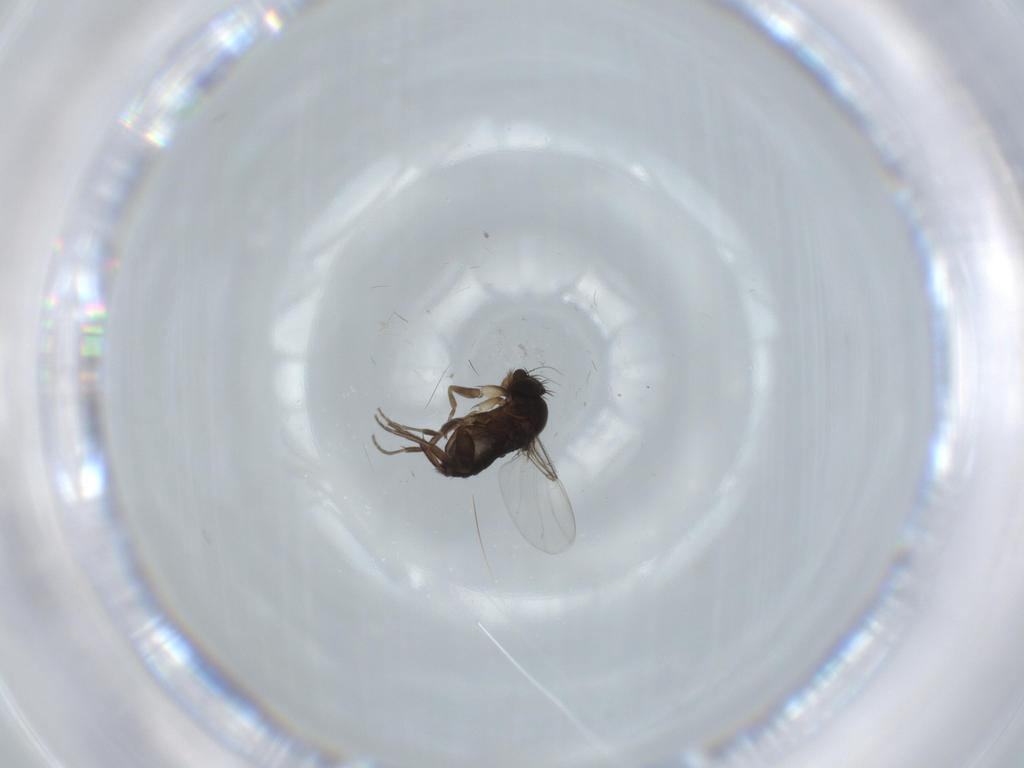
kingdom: Animalia
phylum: Arthropoda
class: Insecta
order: Diptera
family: Phoridae
